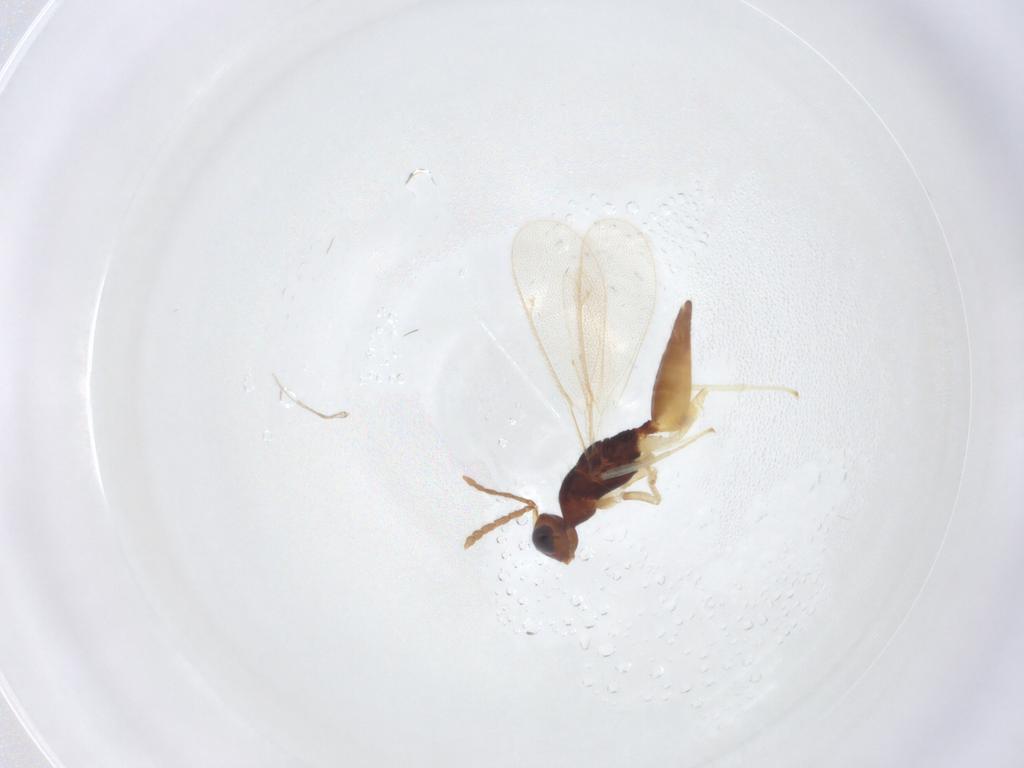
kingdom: Animalia
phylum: Arthropoda
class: Insecta
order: Hymenoptera
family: Eulophidae
